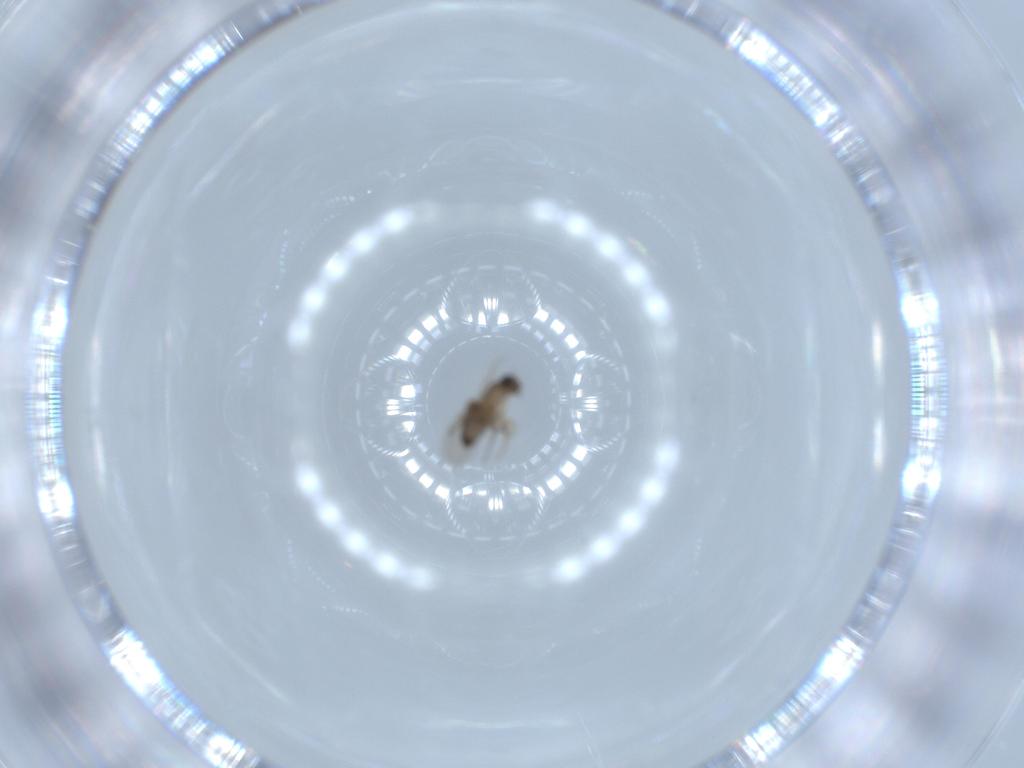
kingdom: Animalia
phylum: Arthropoda
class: Insecta
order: Diptera
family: Phoridae
